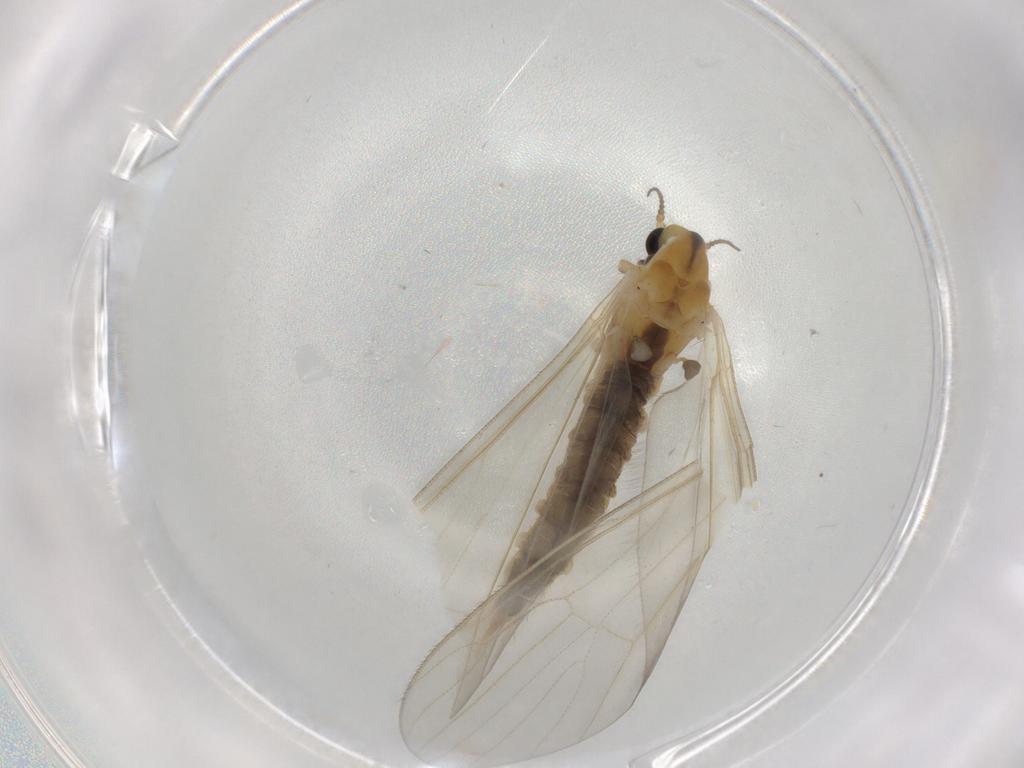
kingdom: Animalia
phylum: Arthropoda
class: Insecta
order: Diptera
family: Limoniidae
